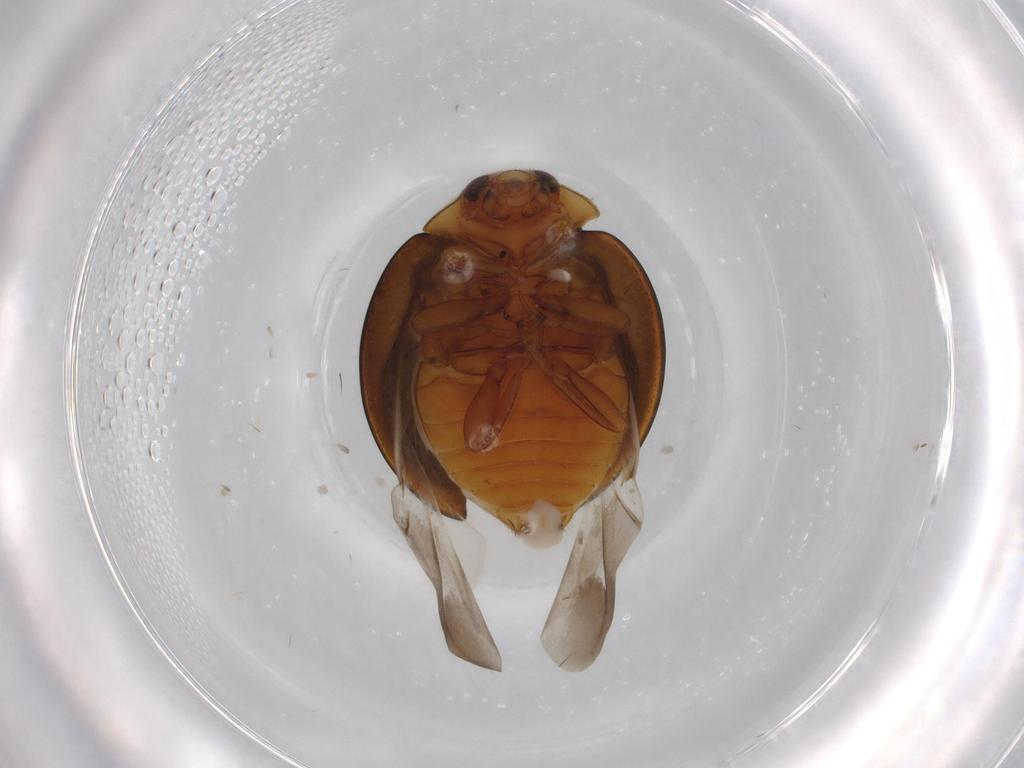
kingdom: Animalia
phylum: Arthropoda
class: Insecta
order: Coleoptera
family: Coccinellidae
